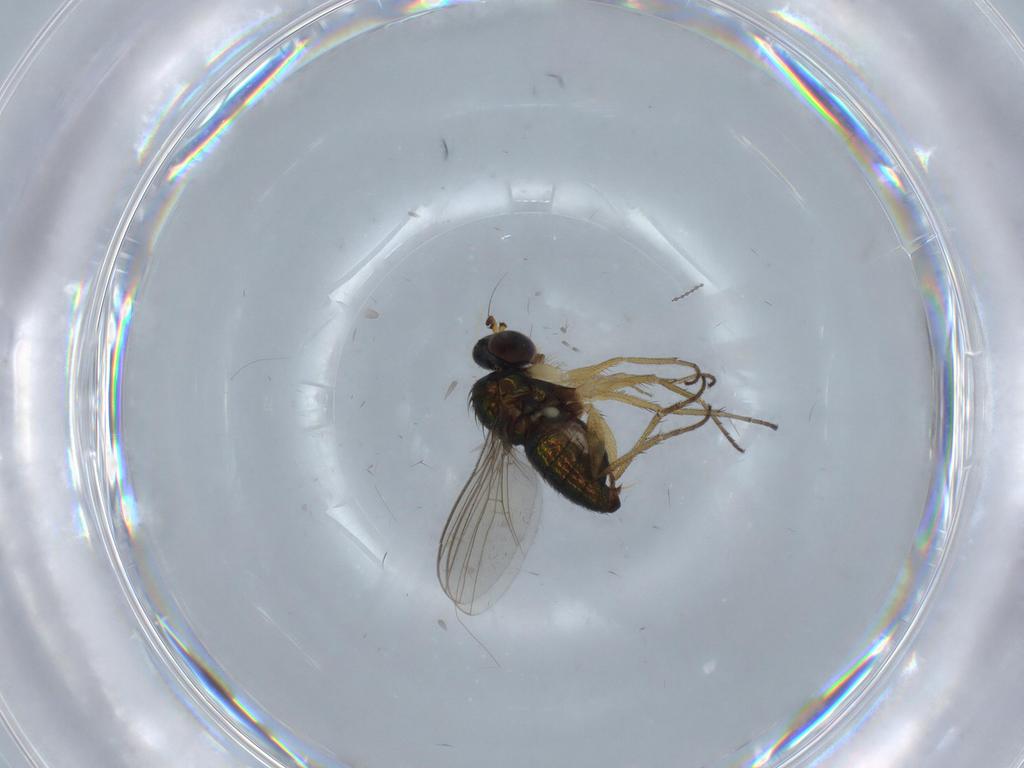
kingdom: Animalia
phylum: Arthropoda
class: Insecta
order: Diptera
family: Chironomidae
